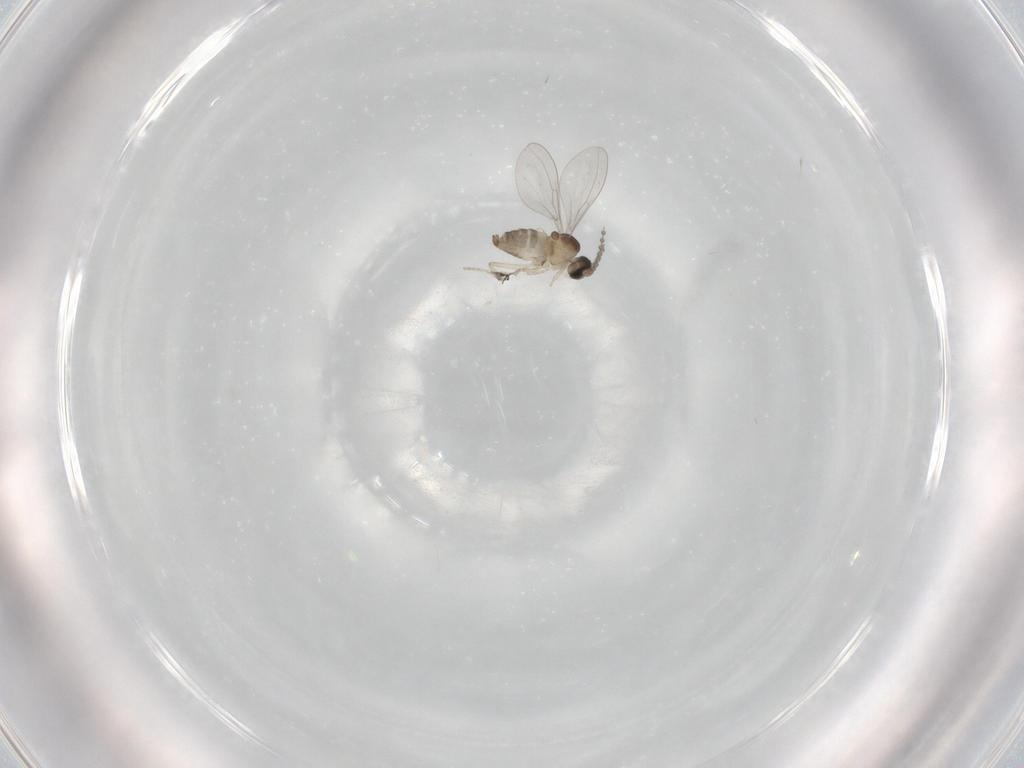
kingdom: Animalia
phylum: Arthropoda
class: Insecta
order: Diptera
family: Cecidomyiidae
